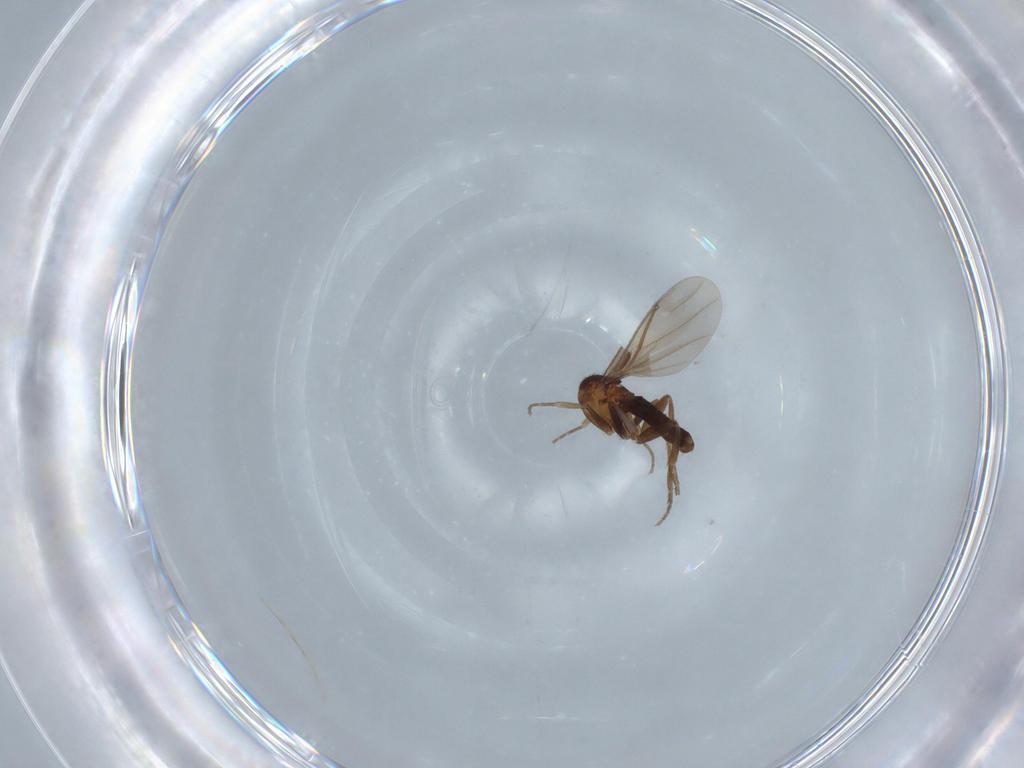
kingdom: Animalia
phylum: Arthropoda
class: Insecta
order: Diptera
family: Phoridae
